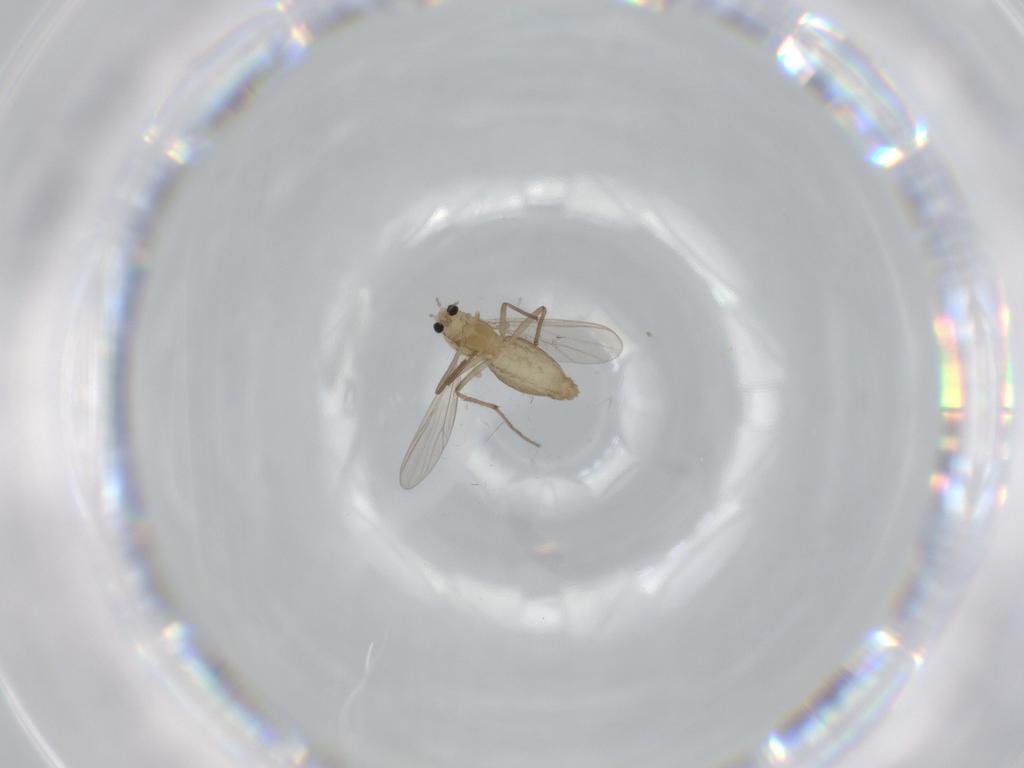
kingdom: Animalia
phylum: Arthropoda
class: Insecta
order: Diptera
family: Chironomidae
